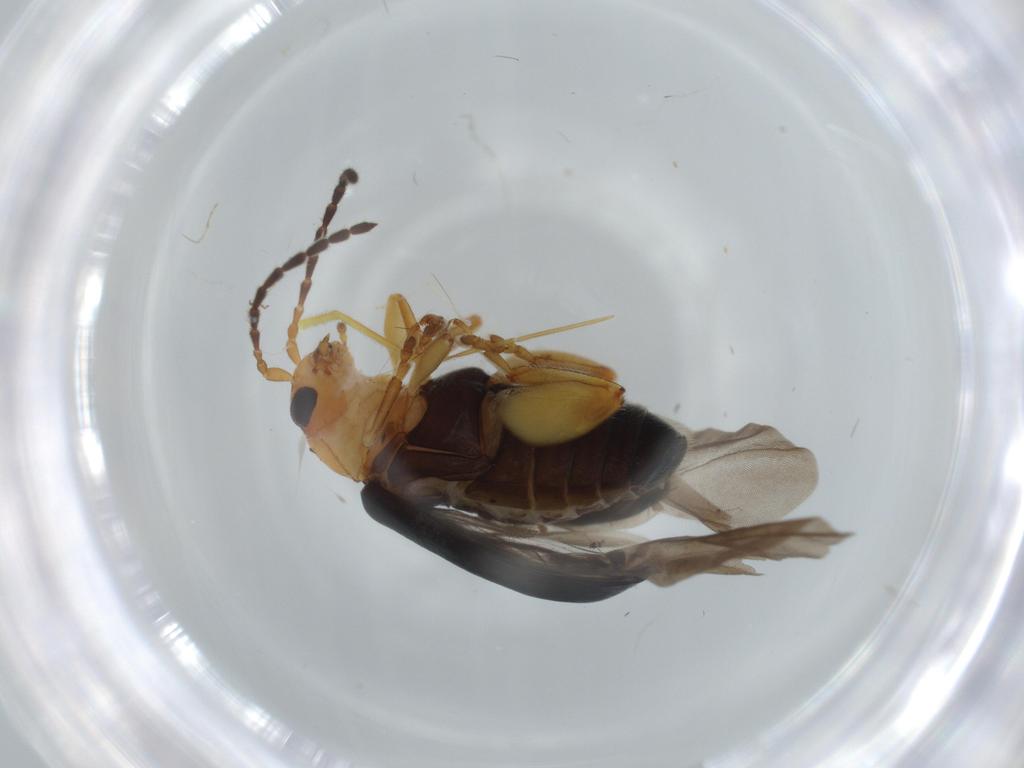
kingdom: Animalia
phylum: Arthropoda
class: Insecta
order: Coleoptera
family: Chrysomelidae
